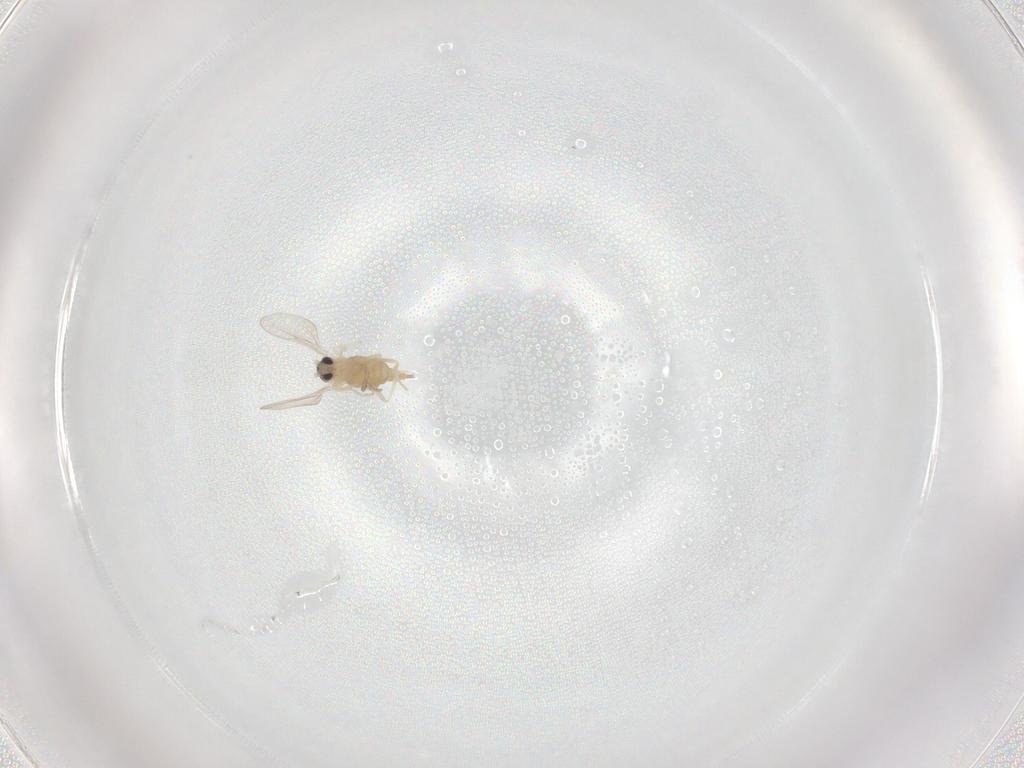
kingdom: Animalia
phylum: Arthropoda
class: Insecta
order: Diptera
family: Cecidomyiidae
